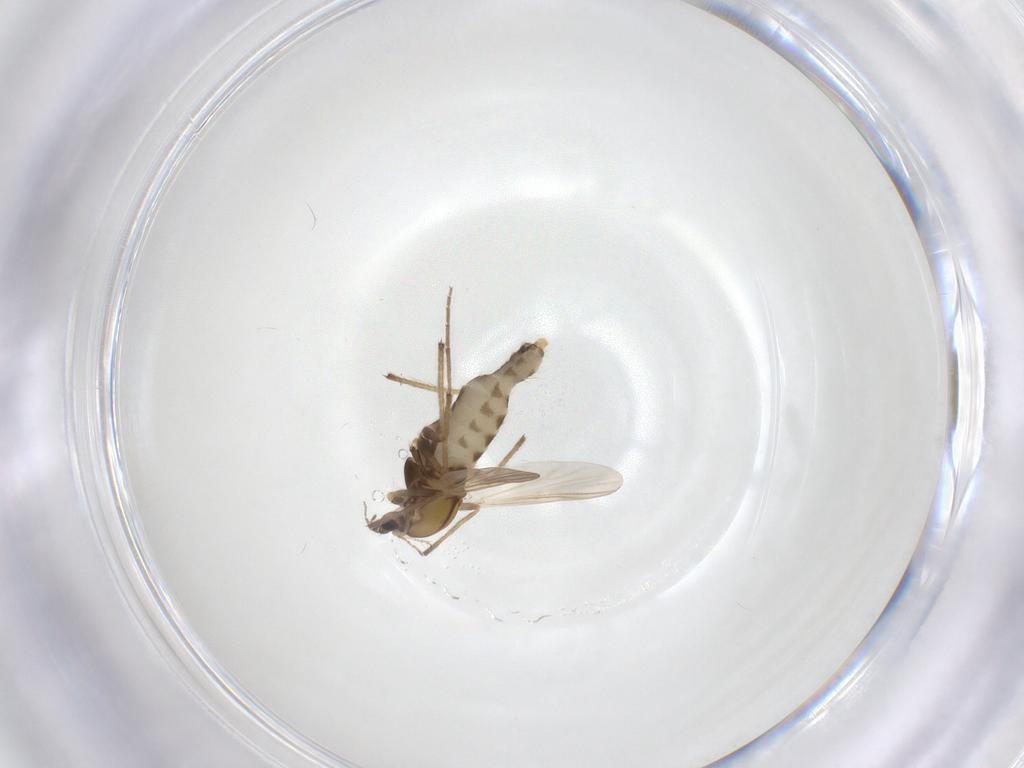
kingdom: Animalia
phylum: Arthropoda
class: Insecta
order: Diptera
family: Chironomidae
